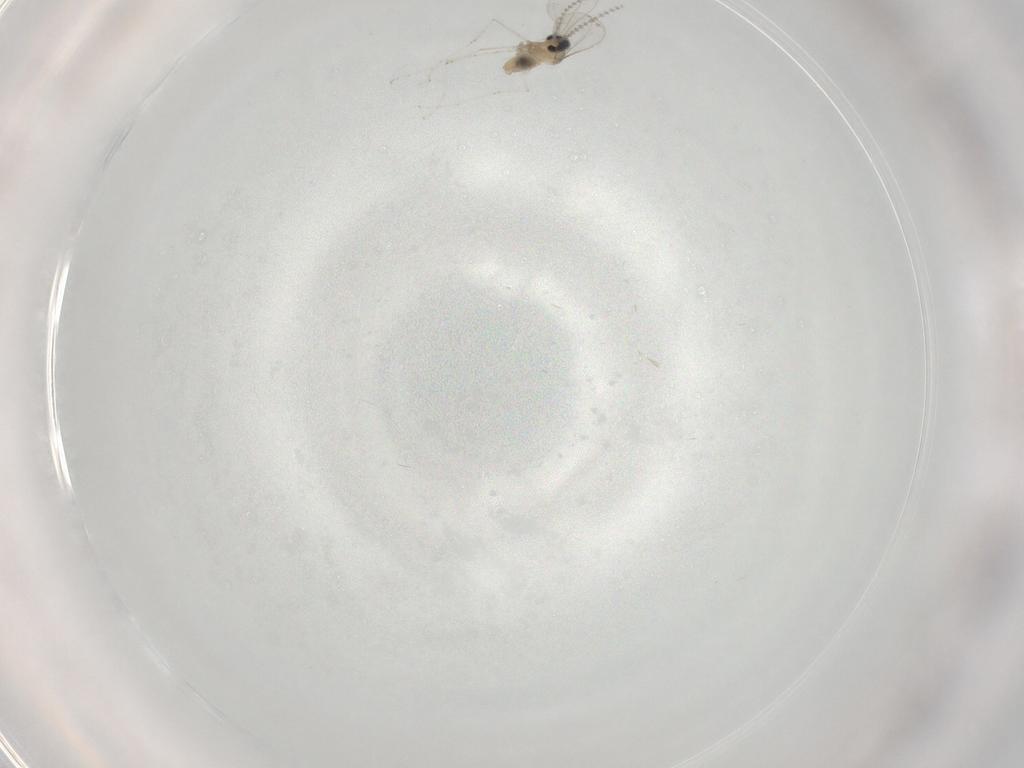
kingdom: Animalia
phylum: Arthropoda
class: Insecta
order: Diptera
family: Cecidomyiidae
